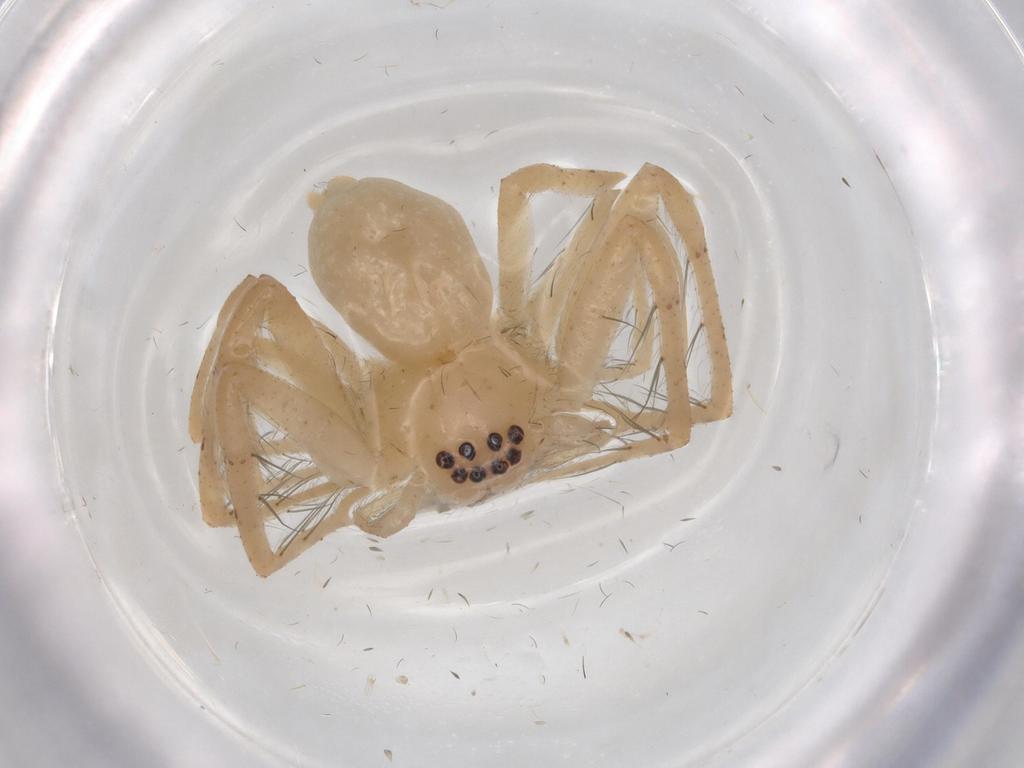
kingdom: Animalia
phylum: Arthropoda
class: Arachnida
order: Araneae
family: Sparassidae
